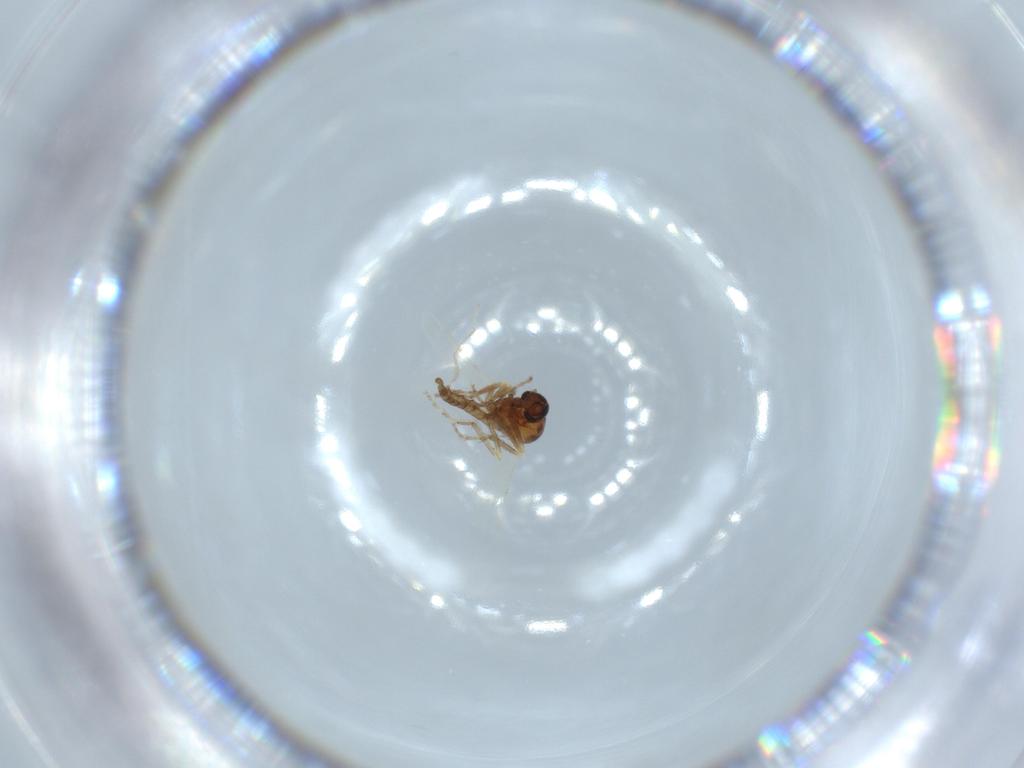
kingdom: Animalia
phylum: Arthropoda
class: Insecta
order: Diptera
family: Ceratopogonidae
